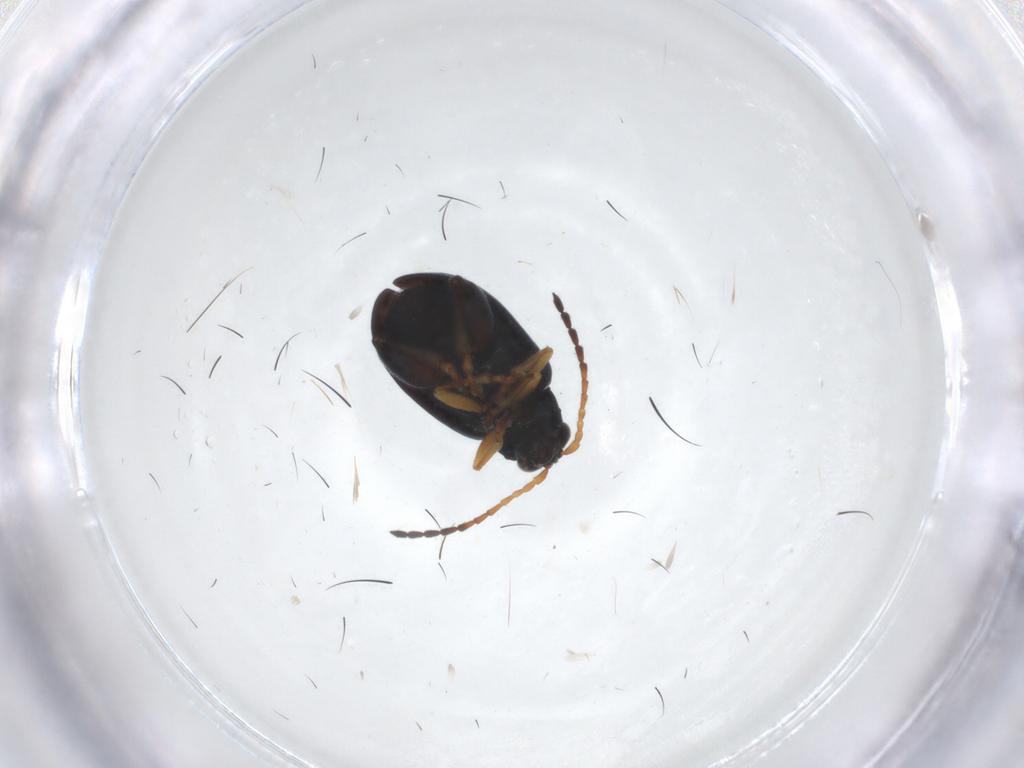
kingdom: Animalia
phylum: Arthropoda
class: Insecta
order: Coleoptera
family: Chrysomelidae
